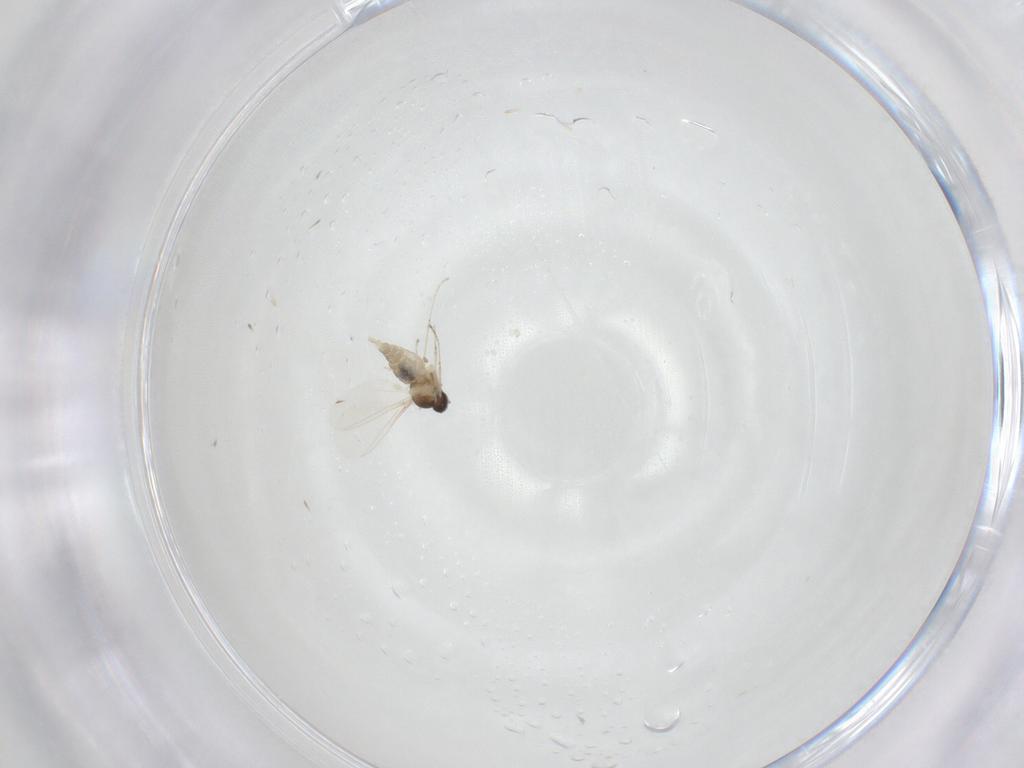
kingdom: Animalia
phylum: Arthropoda
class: Insecta
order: Diptera
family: Cecidomyiidae
